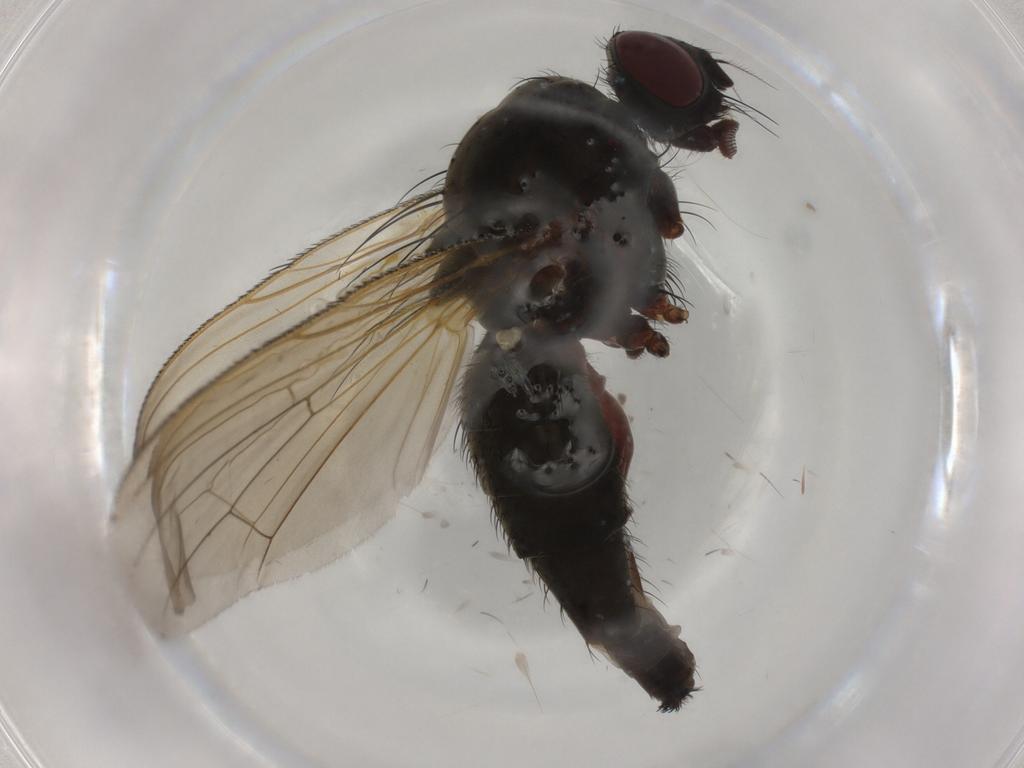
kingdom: Animalia
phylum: Arthropoda
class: Insecta
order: Diptera
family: Anthomyiidae
